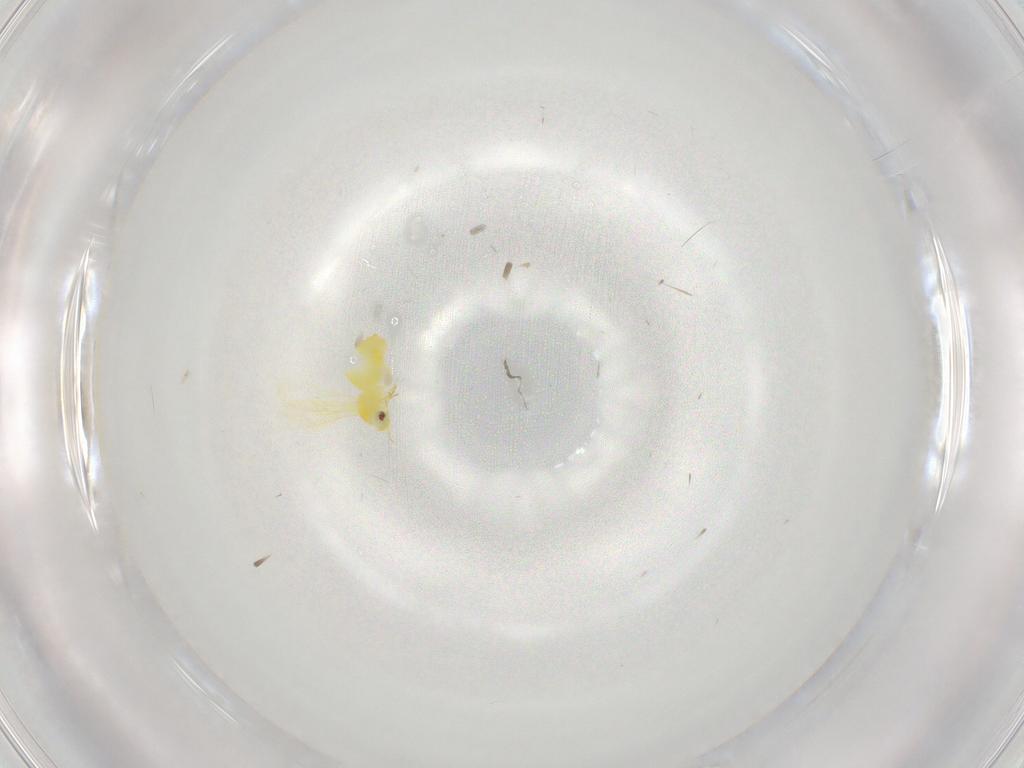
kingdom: Animalia
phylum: Arthropoda
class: Insecta
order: Hemiptera
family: Aleyrodidae
